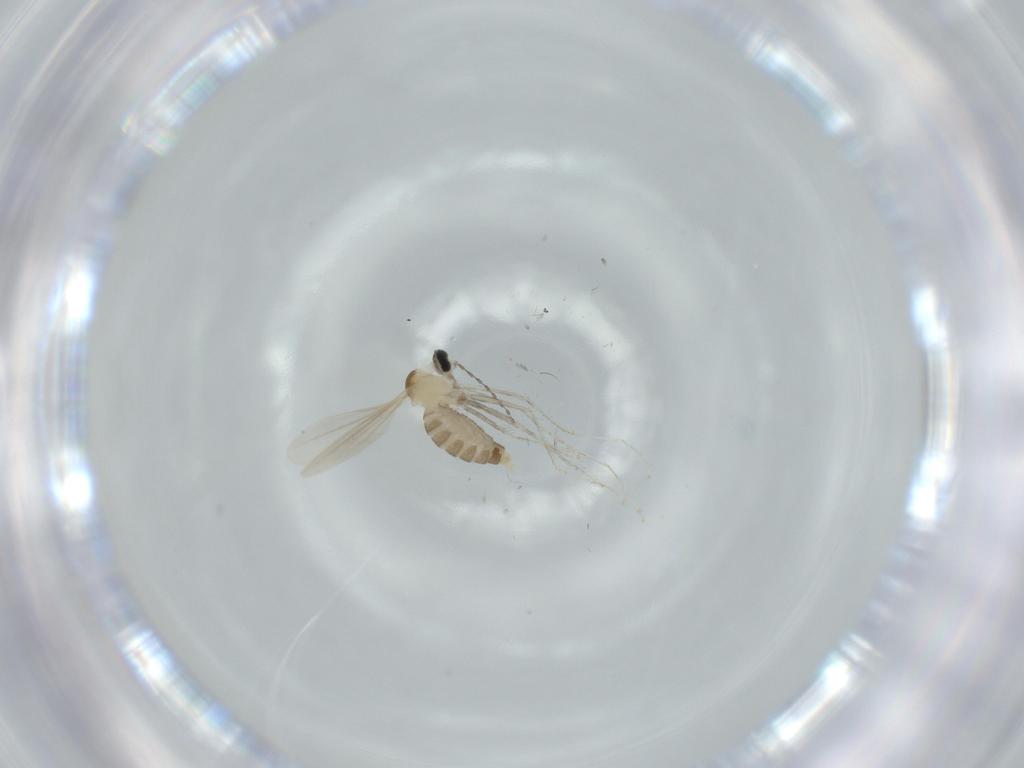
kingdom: Animalia
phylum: Arthropoda
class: Insecta
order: Diptera
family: Cecidomyiidae
